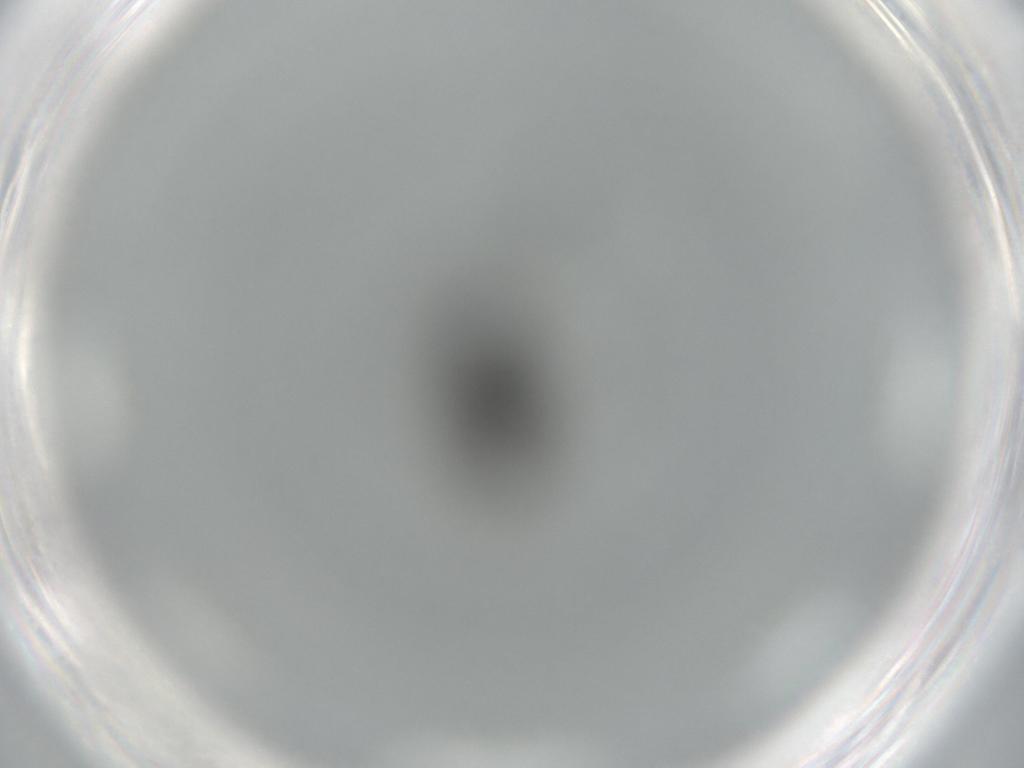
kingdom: Animalia
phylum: Arthropoda
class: Insecta
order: Diptera
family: Sphaeroceridae
